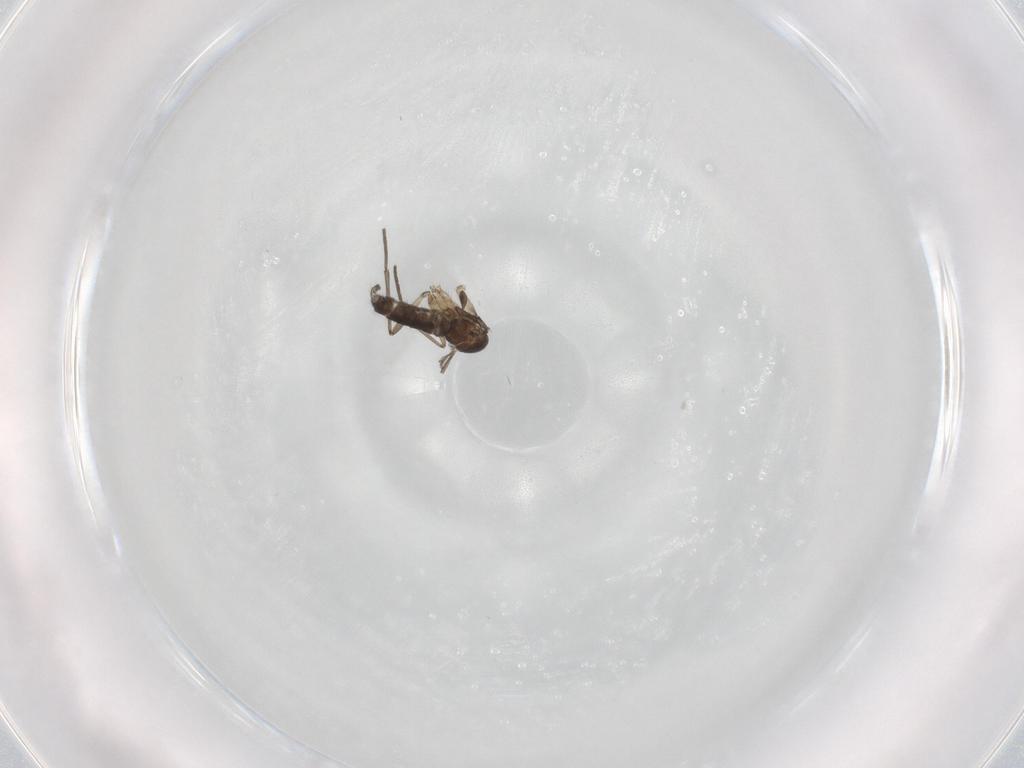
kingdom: Animalia
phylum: Arthropoda
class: Insecta
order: Diptera
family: Sciaridae
